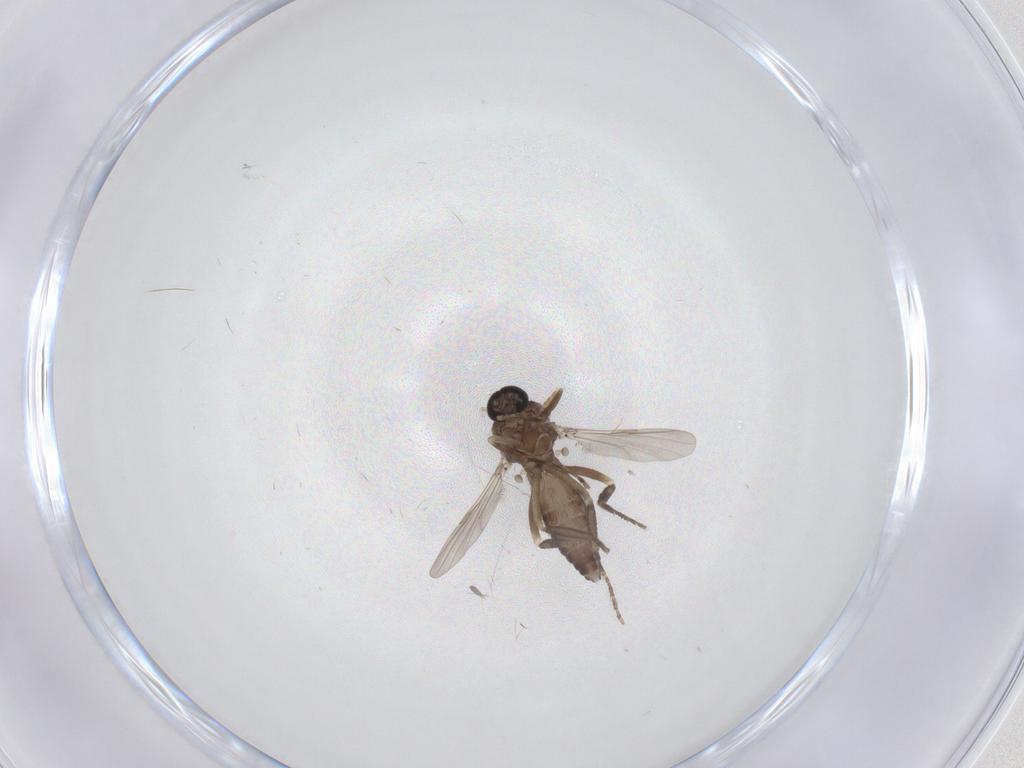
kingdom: Animalia
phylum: Arthropoda
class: Insecta
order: Diptera
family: Ceratopogonidae
